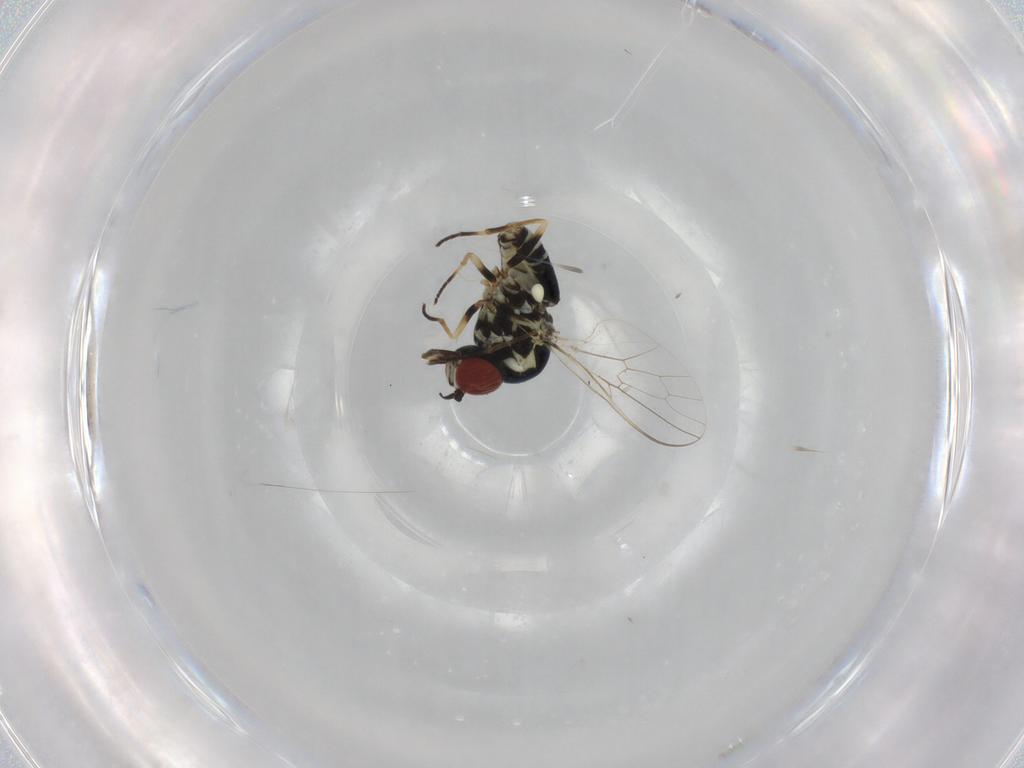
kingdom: Animalia
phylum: Arthropoda
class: Insecta
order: Diptera
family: Bombyliidae
